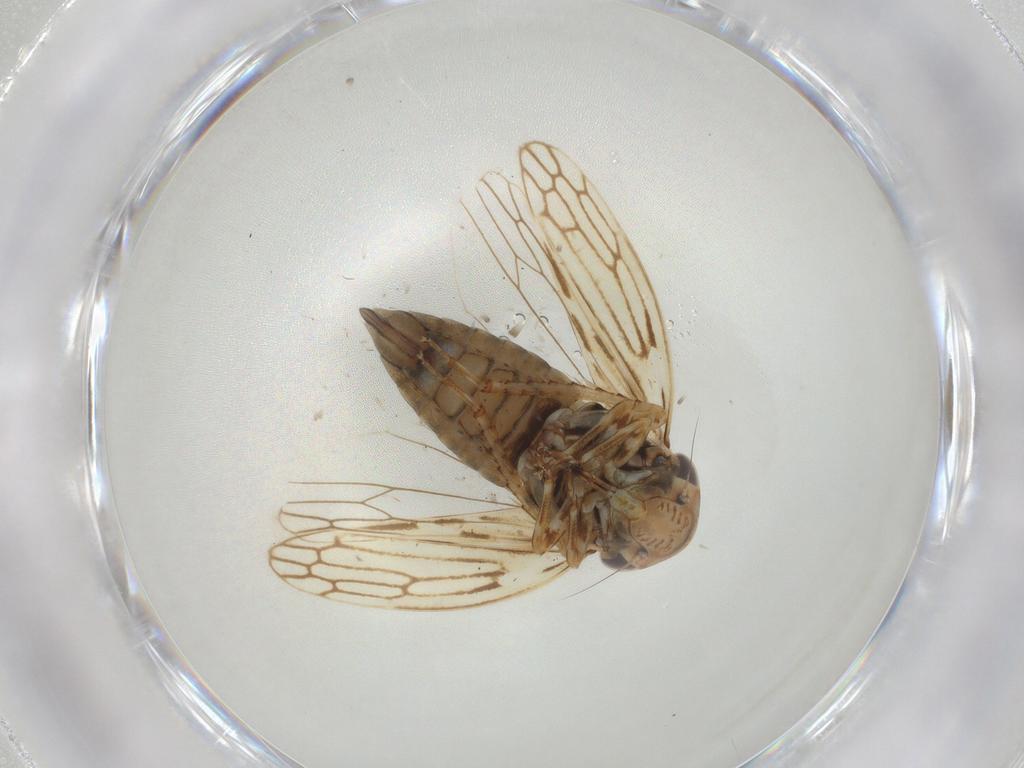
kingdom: Animalia
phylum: Arthropoda
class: Insecta
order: Hemiptera
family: Cicadellidae
